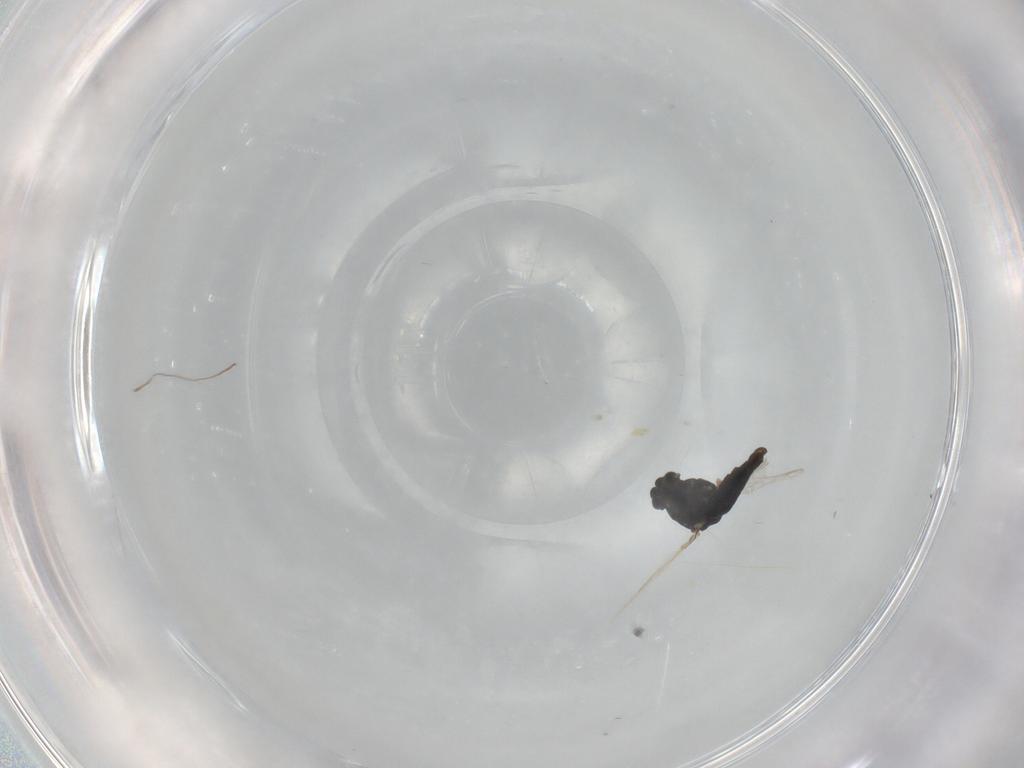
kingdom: Animalia
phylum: Arthropoda
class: Insecta
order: Diptera
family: Chironomidae
